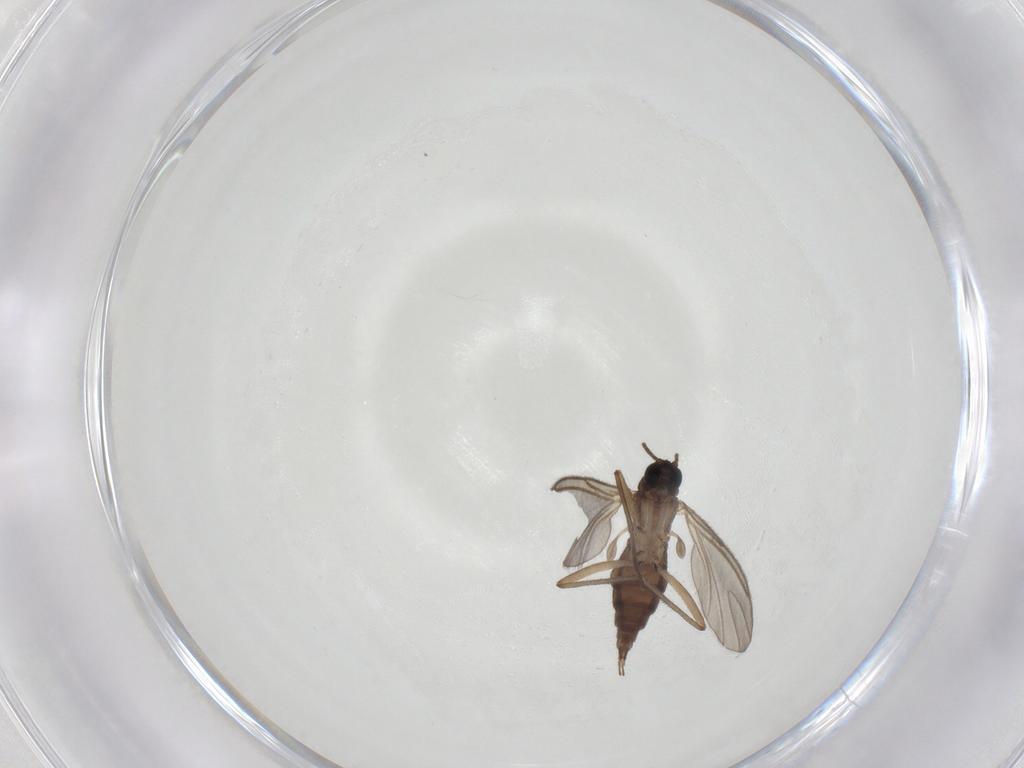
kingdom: Animalia
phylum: Arthropoda
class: Insecta
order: Diptera
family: Sciaridae
